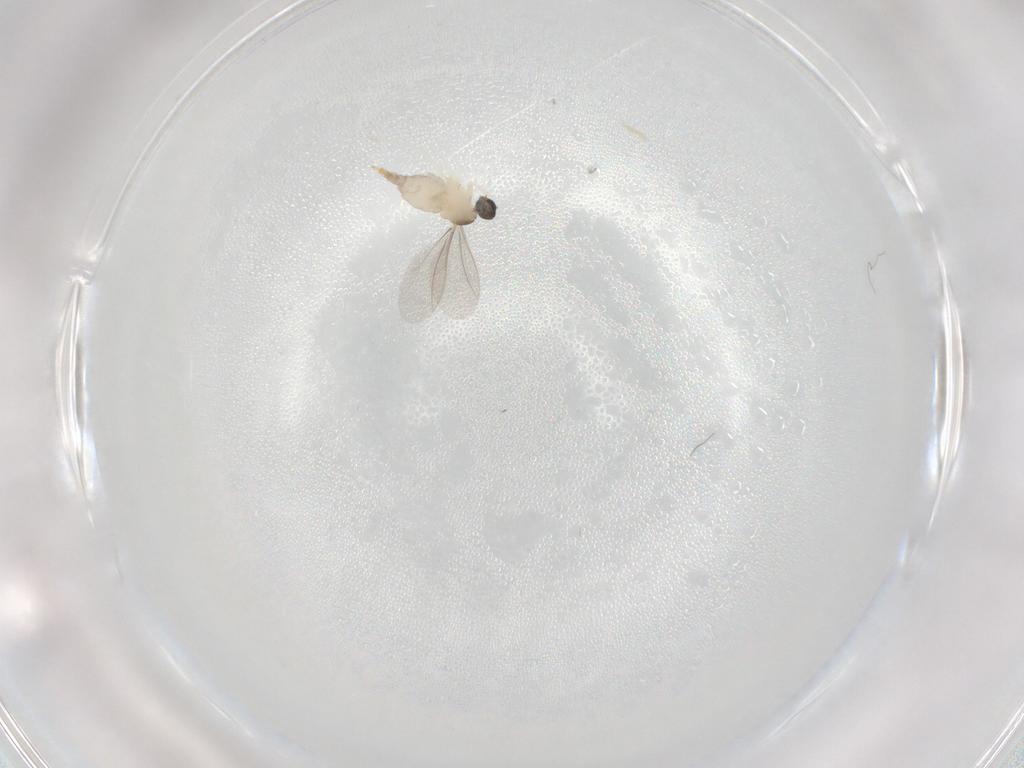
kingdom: Animalia
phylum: Arthropoda
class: Insecta
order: Diptera
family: Cecidomyiidae
